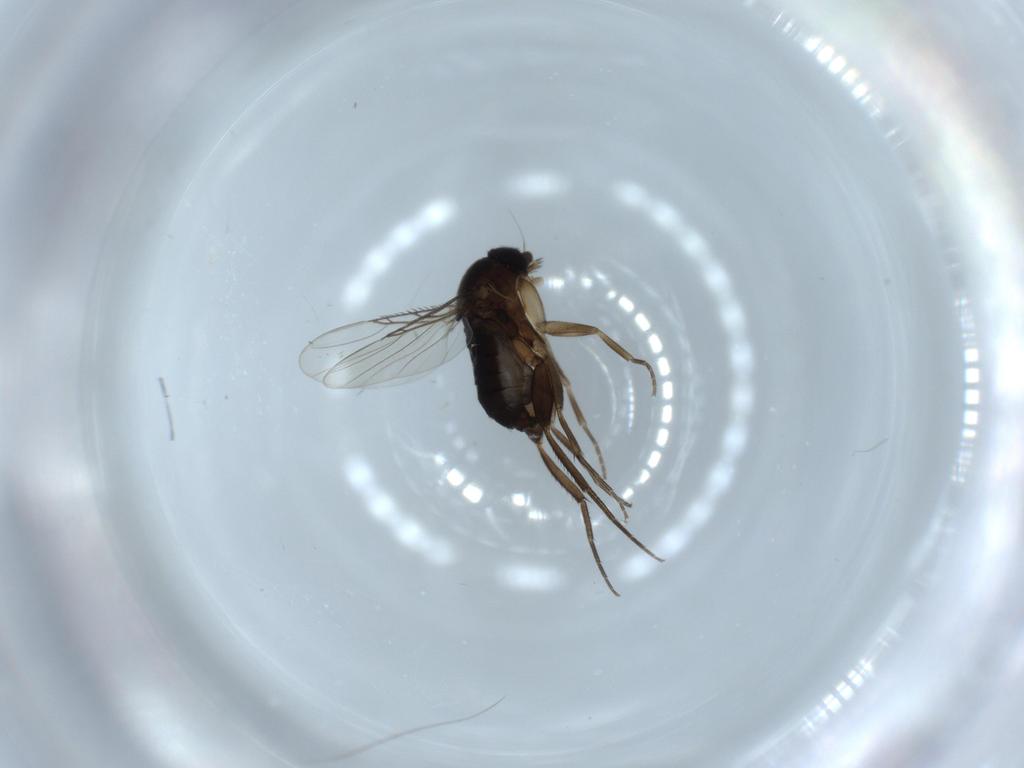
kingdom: Animalia
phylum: Arthropoda
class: Insecta
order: Diptera
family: Phoridae
